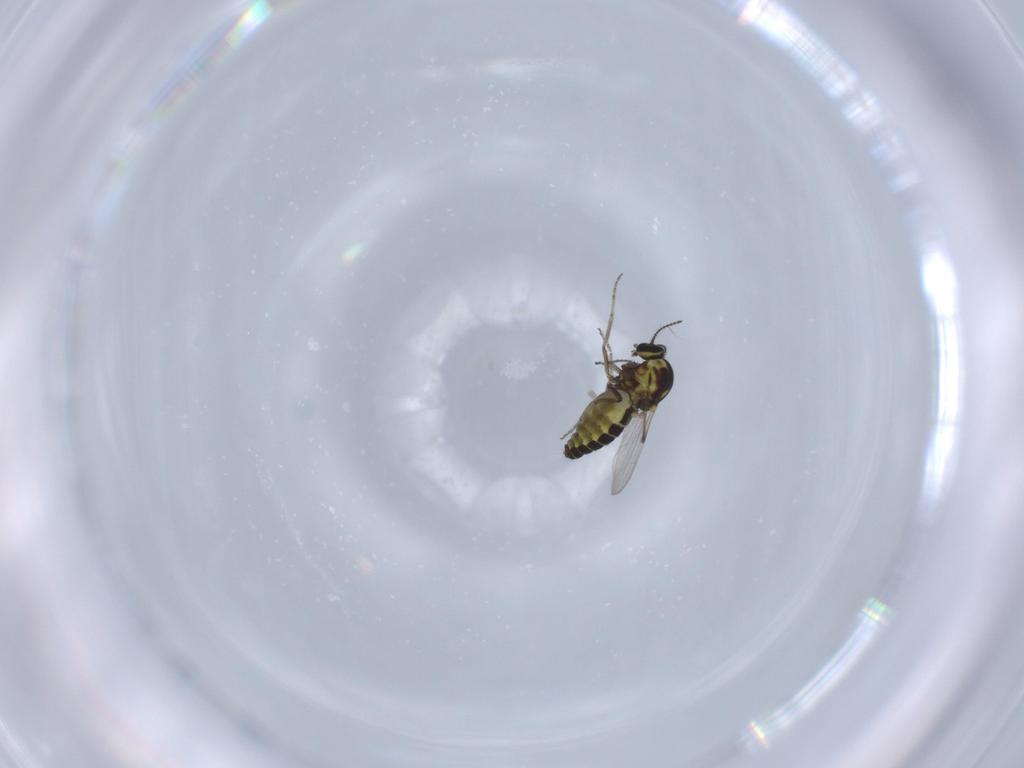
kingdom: Animalia
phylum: Arthropoda
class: Insecta
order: Diptera
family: Ceratopogonidae
